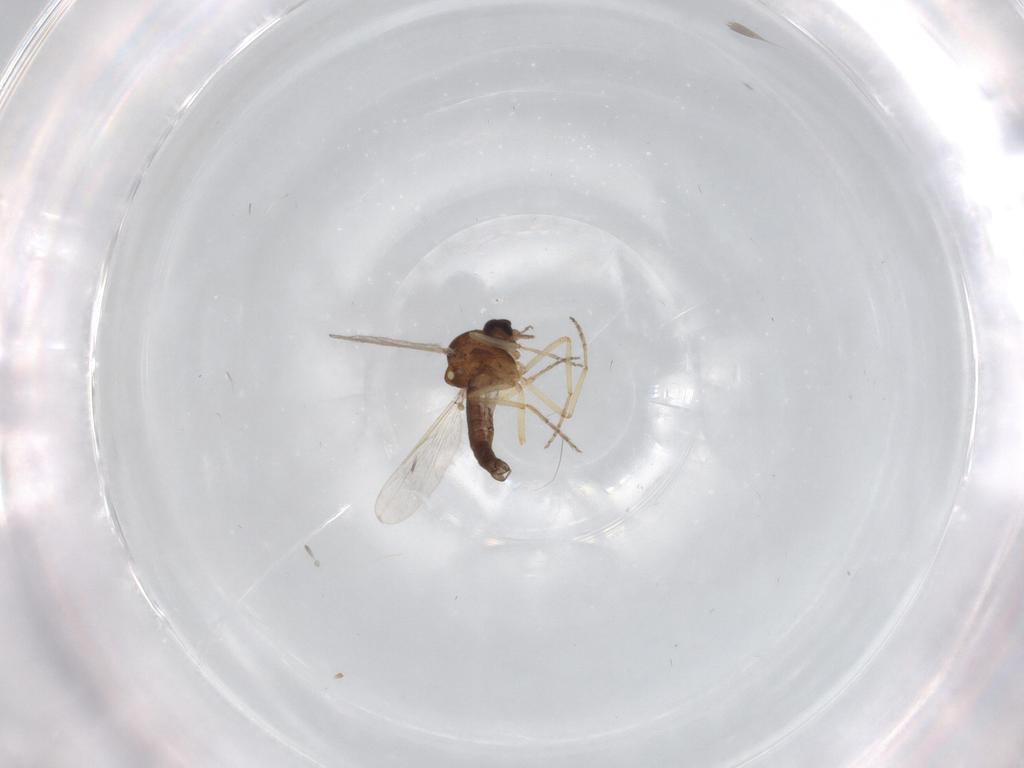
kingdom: Animalia
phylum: Arthropoda
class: Insecta
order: Diptera
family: Ceratopogonidae
